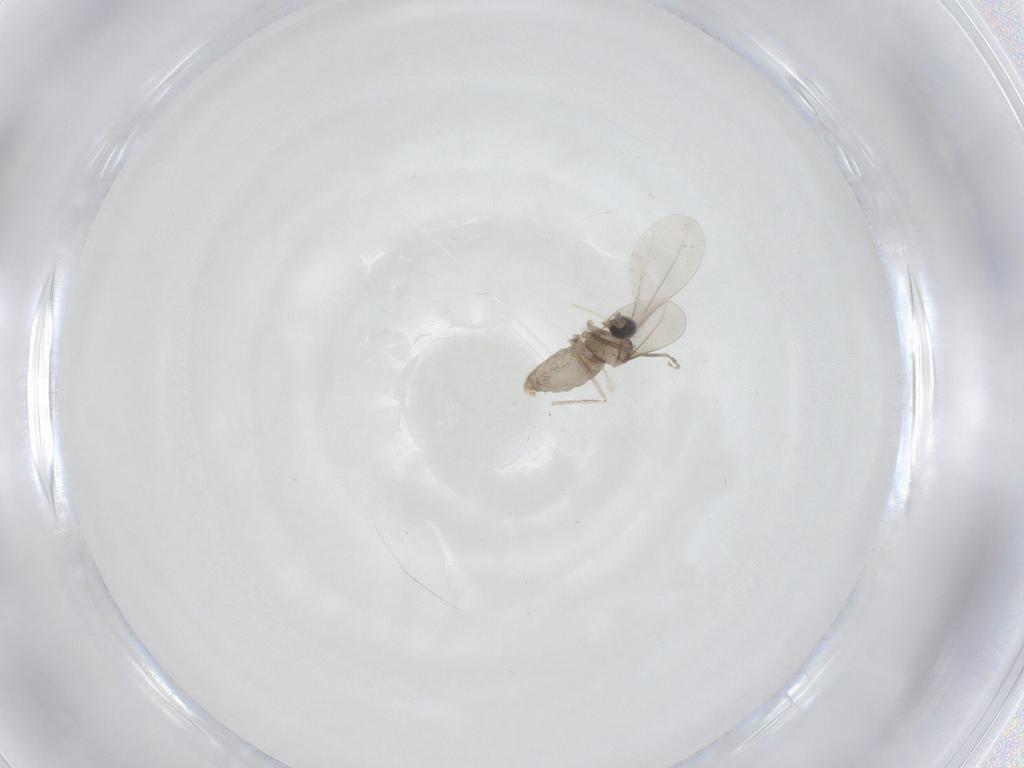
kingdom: Animalia
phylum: Arthropoda
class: Insecta
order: Diptera
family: Cecidomyiidae
